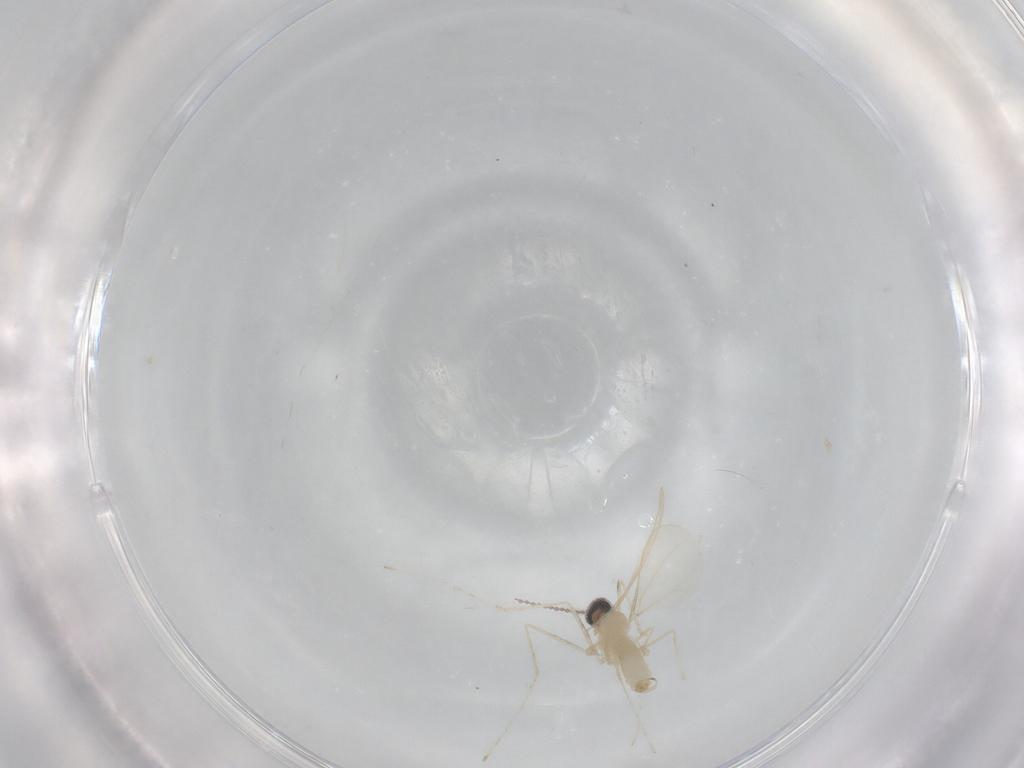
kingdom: Animalia
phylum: Arthropoda
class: Insecta
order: Diptera
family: Cecidomyiidae
